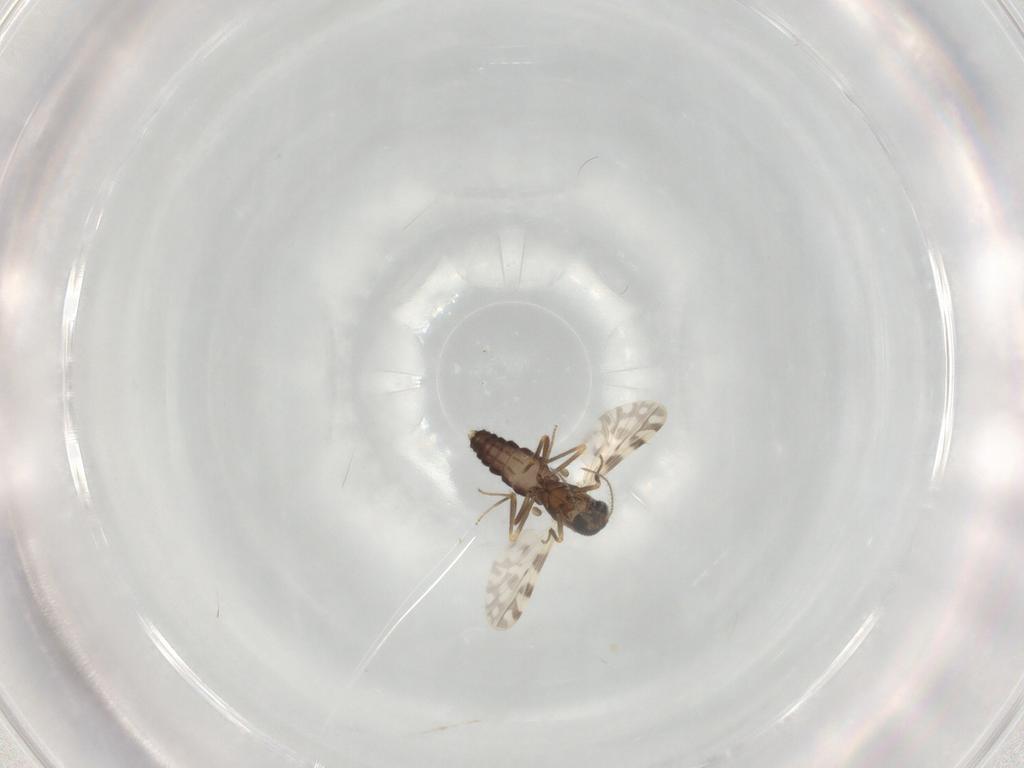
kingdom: Animalia
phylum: Arthropoda
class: Insecta
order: Diptera
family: Ceratopogonidae
